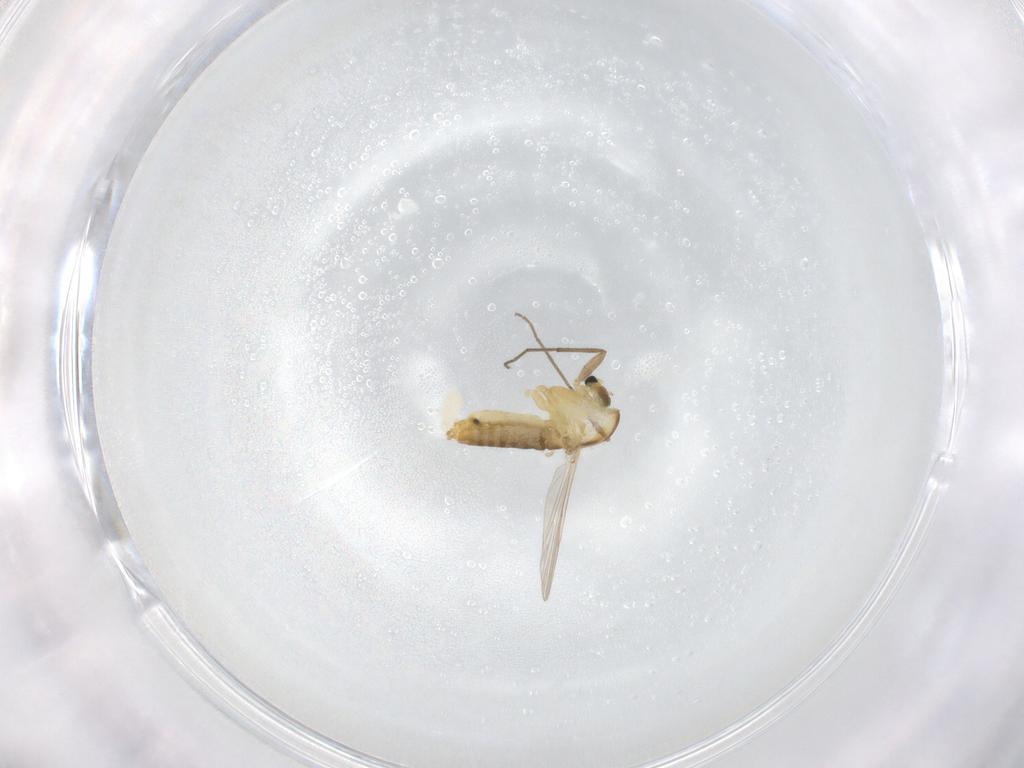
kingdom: Animalia
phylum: Arthropoda
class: Insecta
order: Diptera
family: Chironomidae
